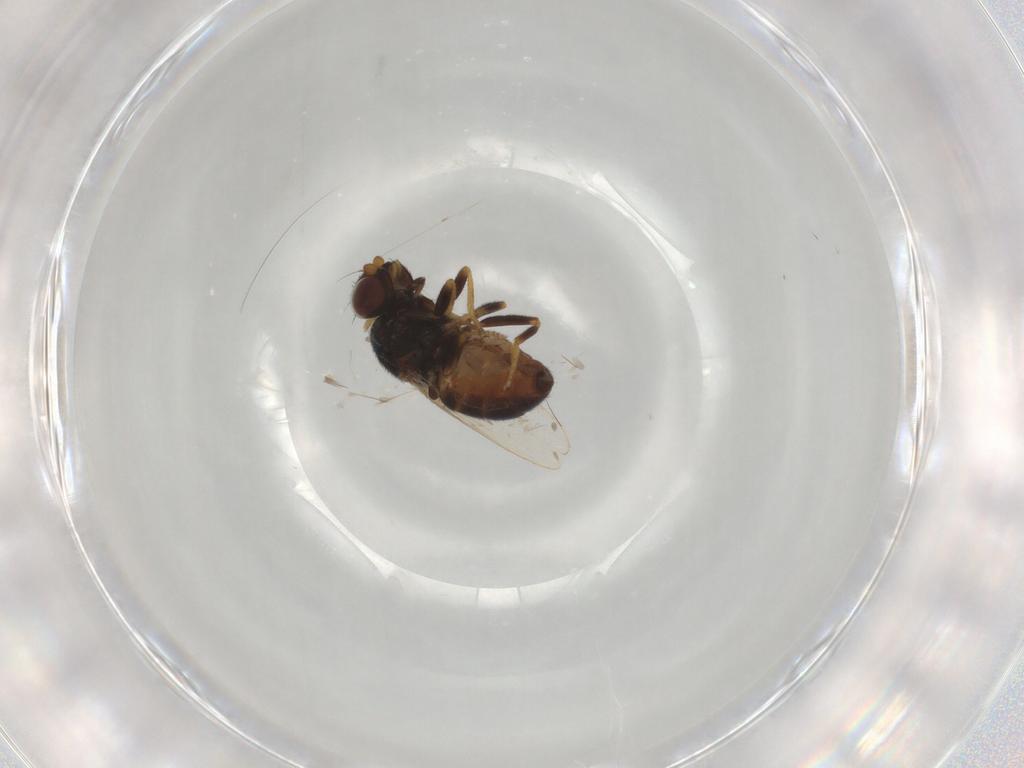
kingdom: Animalia
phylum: Arthropoda
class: Insecta
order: Diptera
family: Chloropidae
